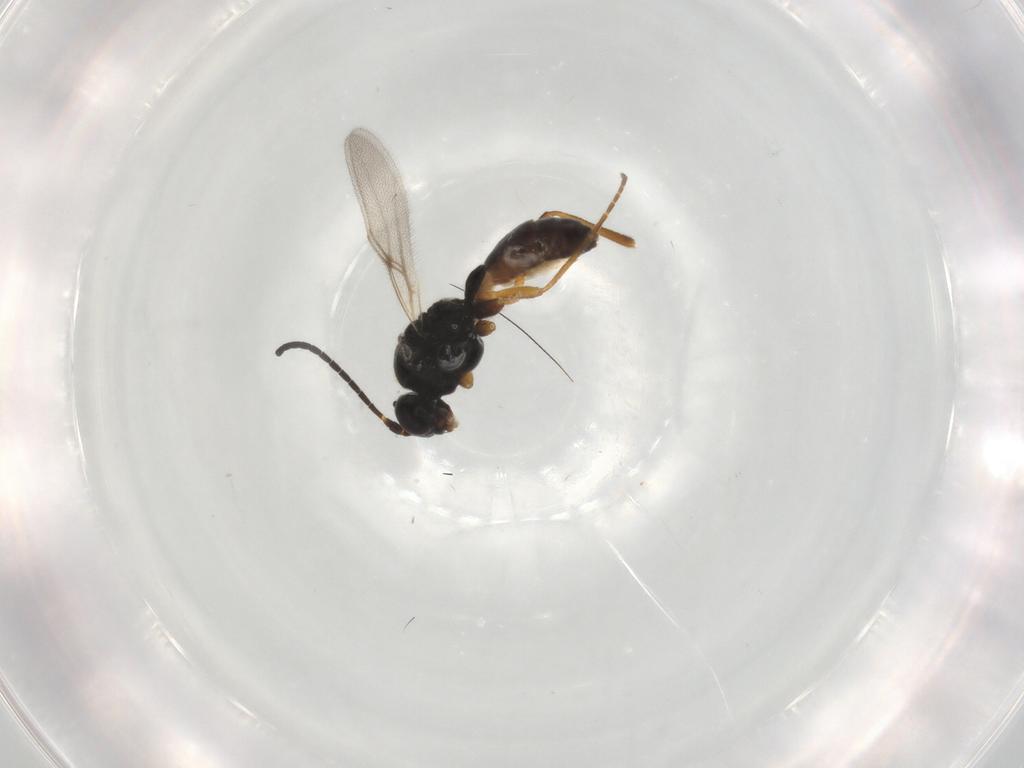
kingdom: Animalia
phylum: Arthropoda
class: Insecta
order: Hymenoptera
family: Braconidae
